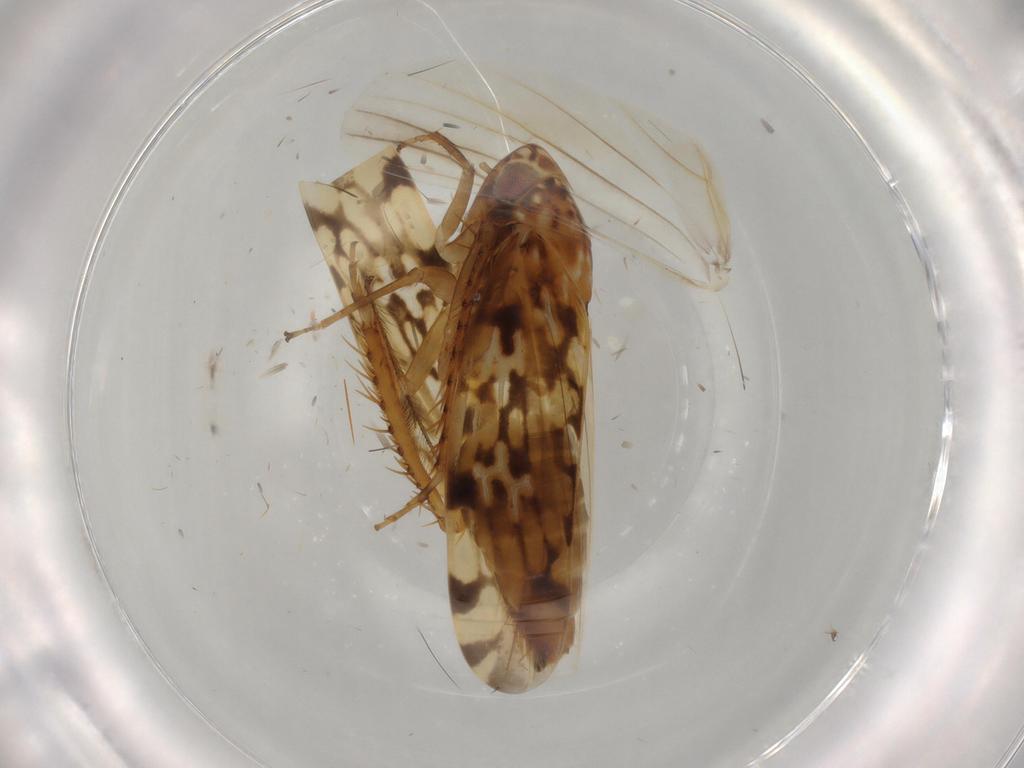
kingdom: Animalia
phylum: Arthropoda
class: Insecta
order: Hemiptera
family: Cicadellidae
